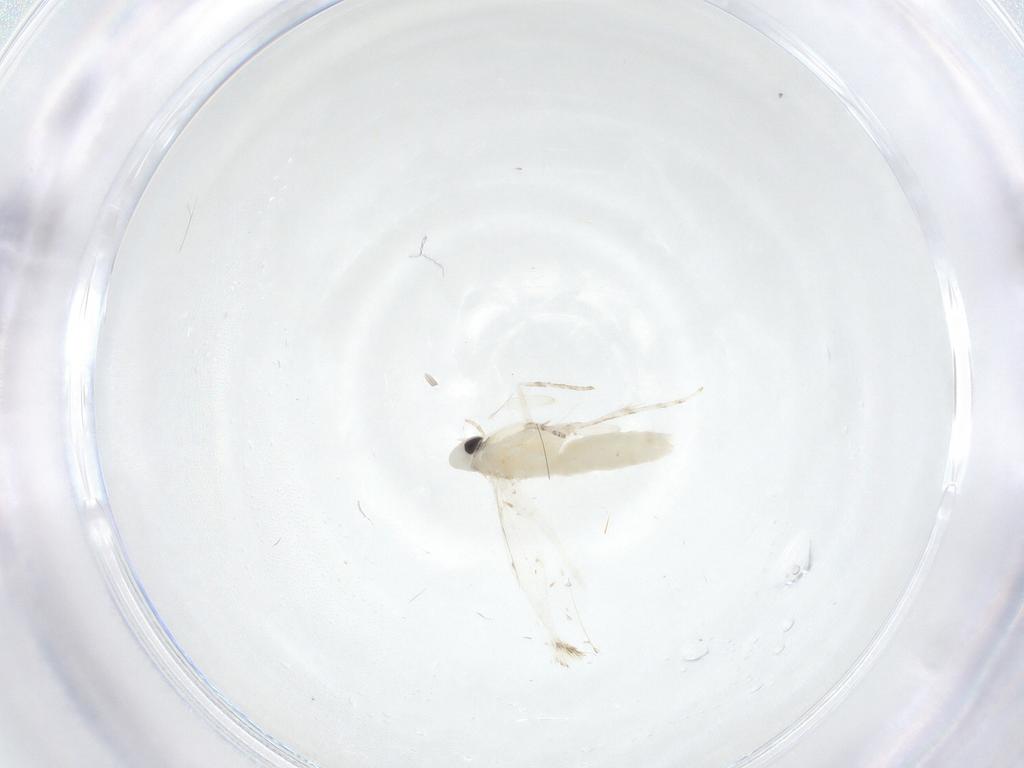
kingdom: Animalia
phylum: Arthropoda
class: Insecta
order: Lepidoptera
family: Gracillariidae
